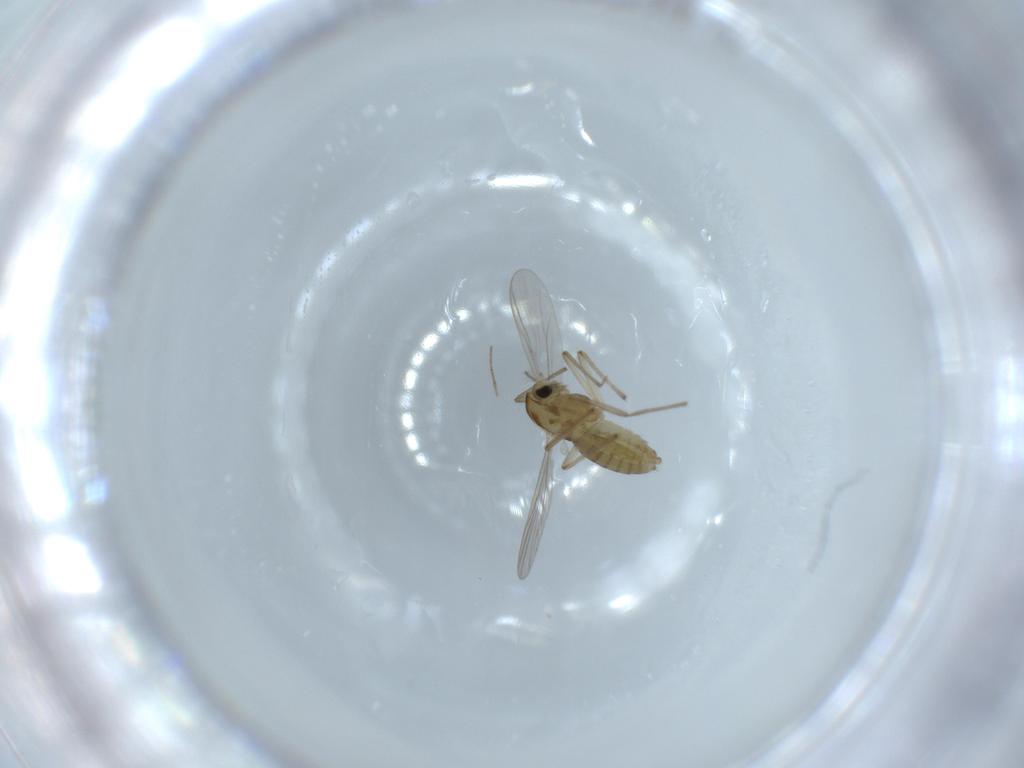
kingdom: Animalia
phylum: Arthropoda
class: Insecta
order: Diptera
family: Chironomidae
